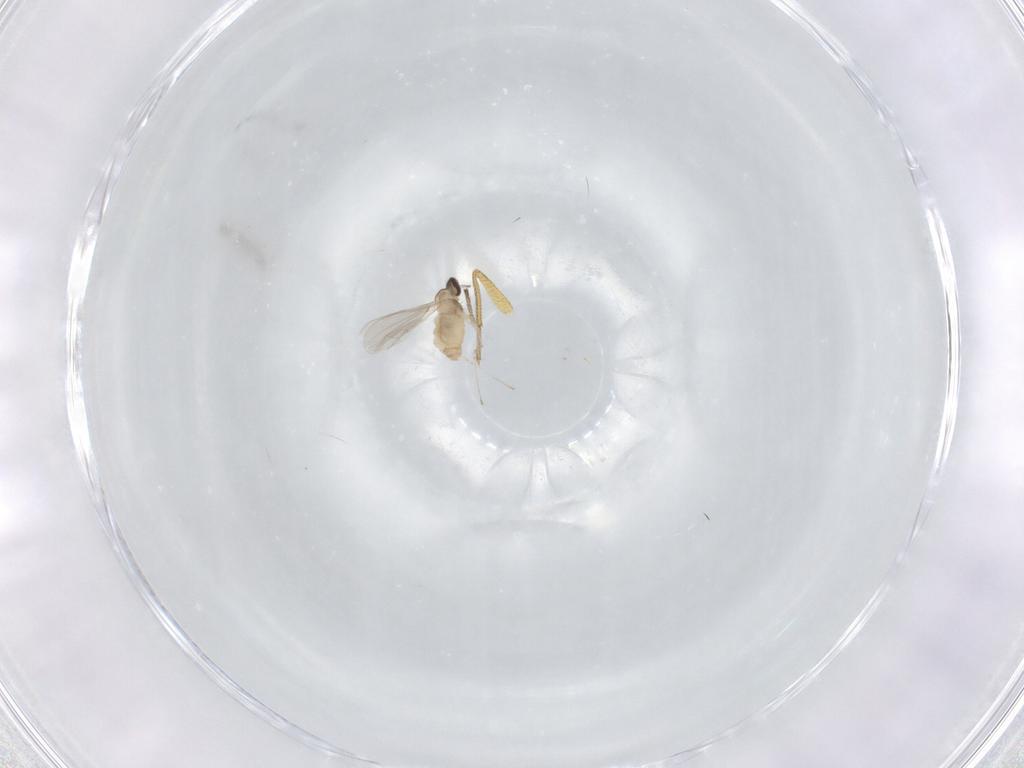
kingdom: Animalia
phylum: Arthropoda
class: Insecta
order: Diptera
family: Dolichopodidae
